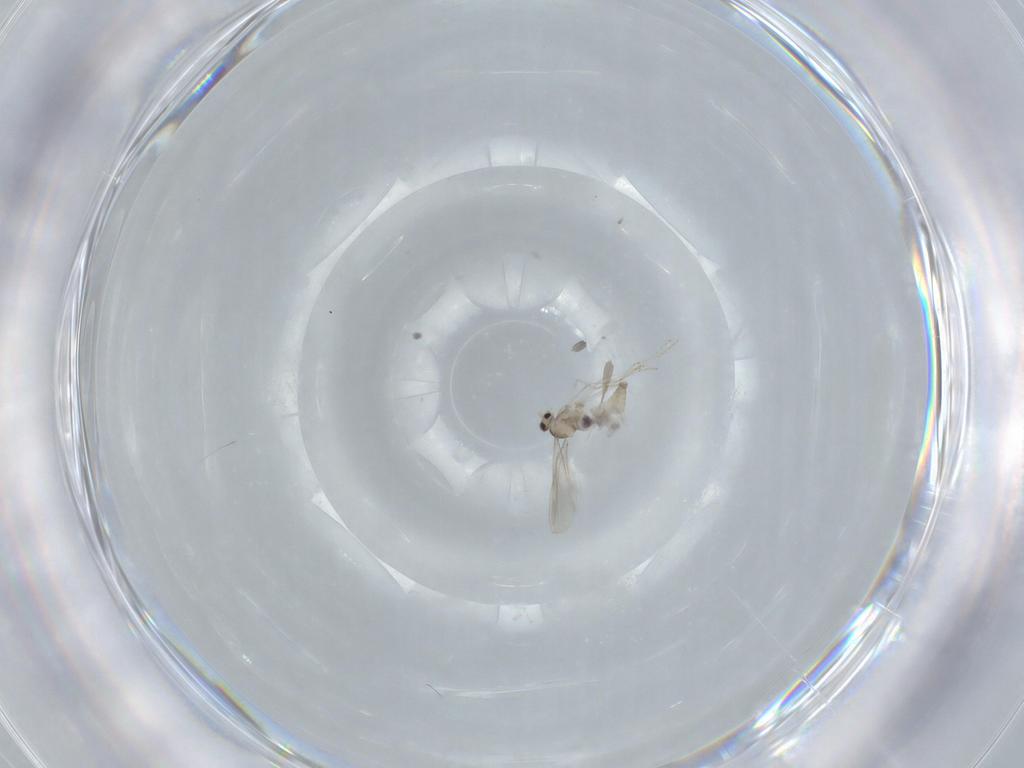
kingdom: Animalia
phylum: Arthropoda
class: Insecta
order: Diptera
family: Cecidomyiidae
